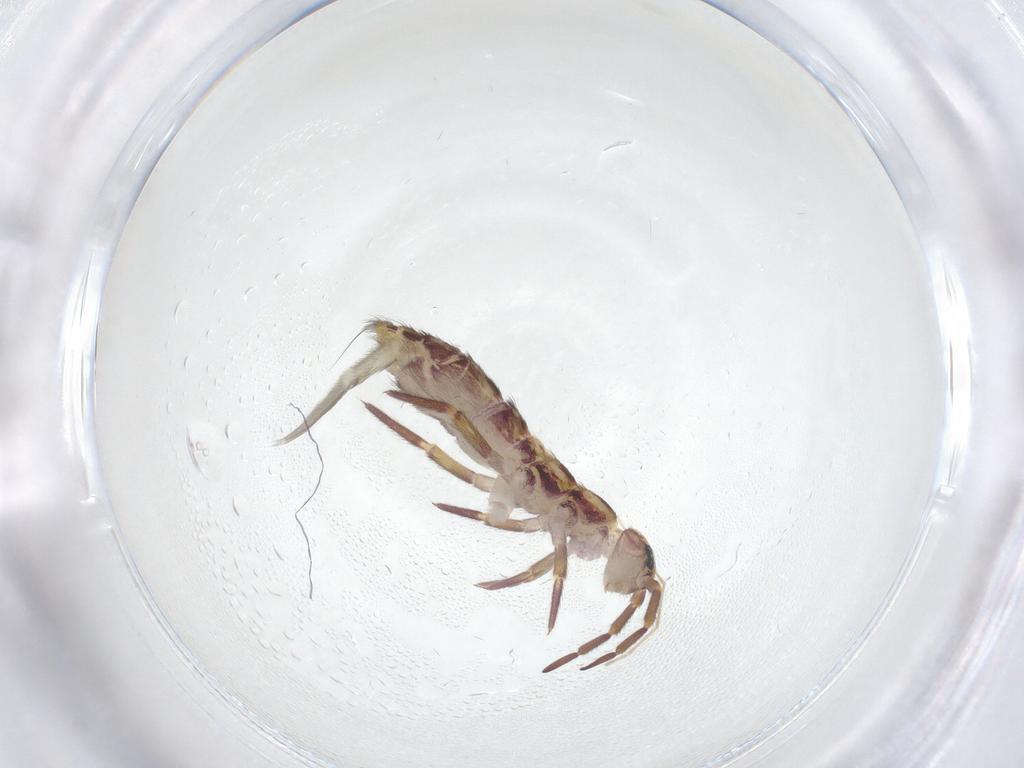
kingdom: Animalia
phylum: Arthropoda
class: Collembola
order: Entomobryomorpha
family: Isotomidae
